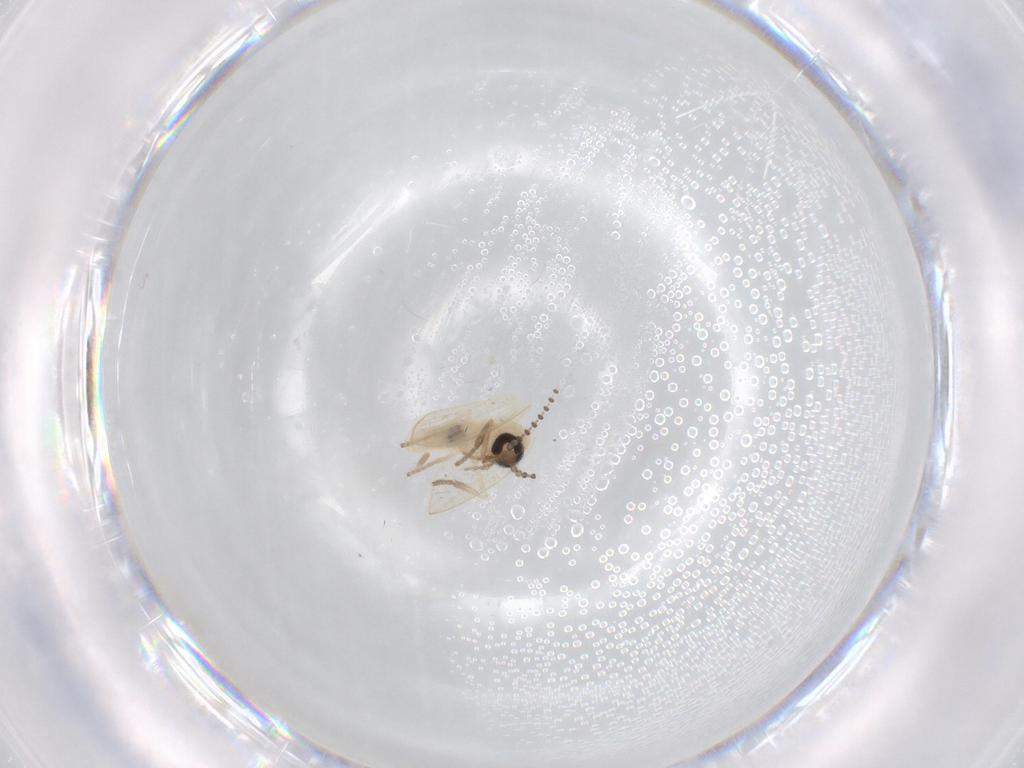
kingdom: Animalia
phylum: Arthropoda
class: Insecta
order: Diptera
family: Psychodidae
